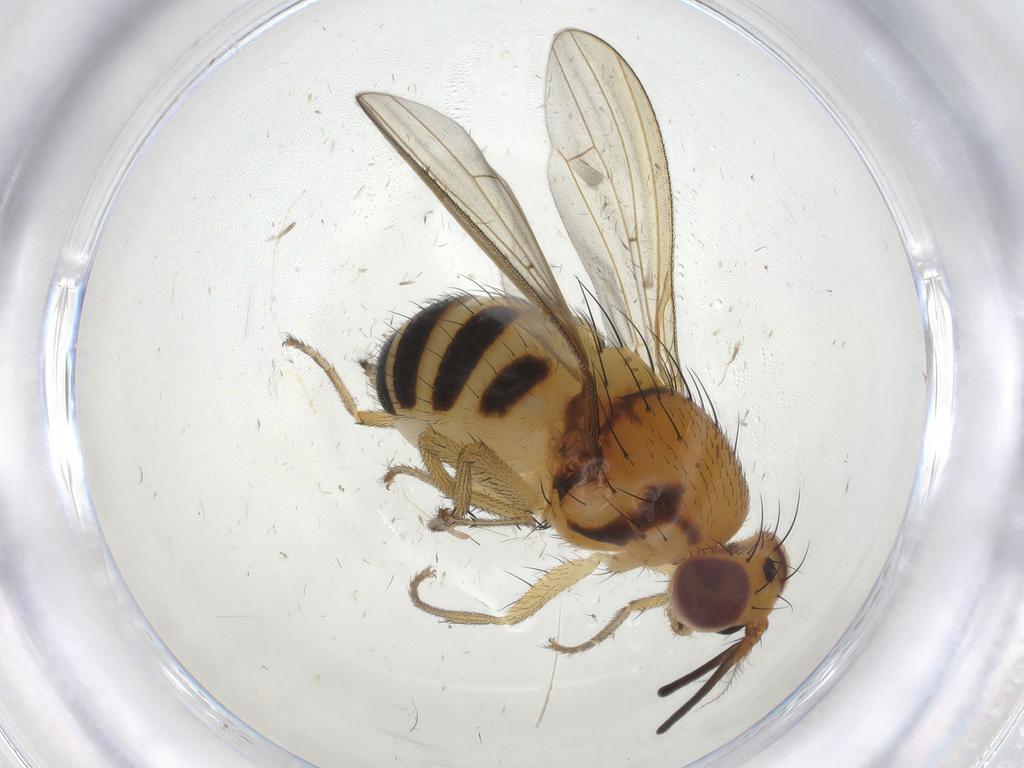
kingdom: Animalia
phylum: Arthropoda
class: Insecta
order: Diptera
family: Lauxaniidae
